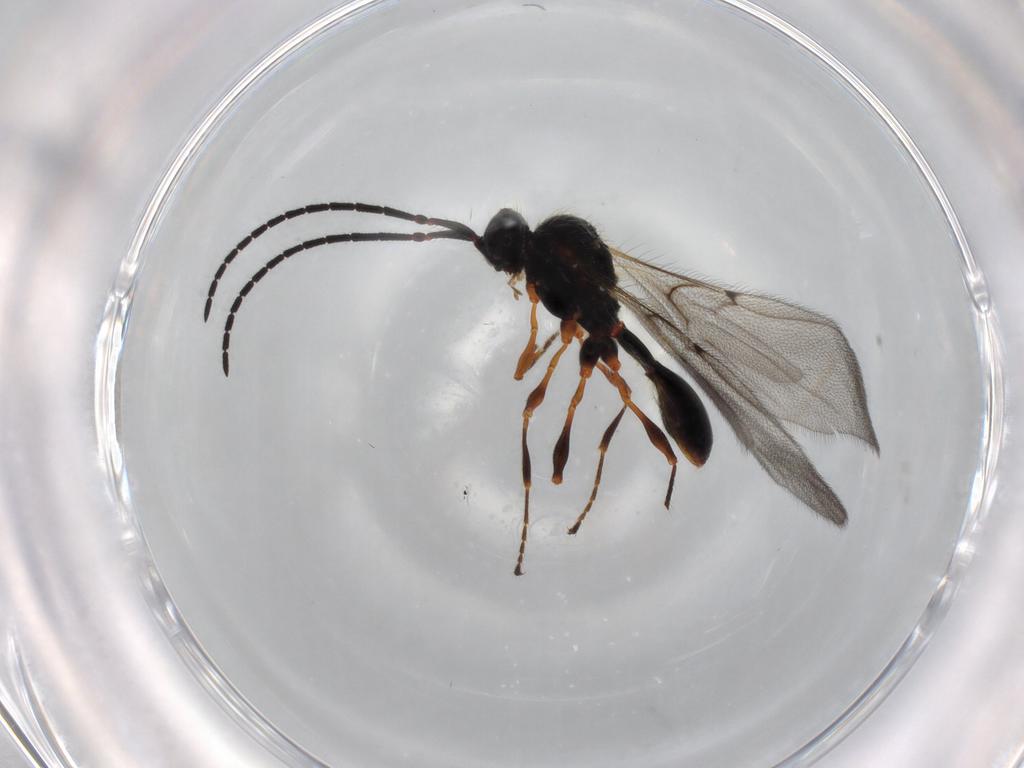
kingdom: Animalia
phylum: Arthropoda
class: Insecta
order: Hymenoptera
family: Diapriidae
